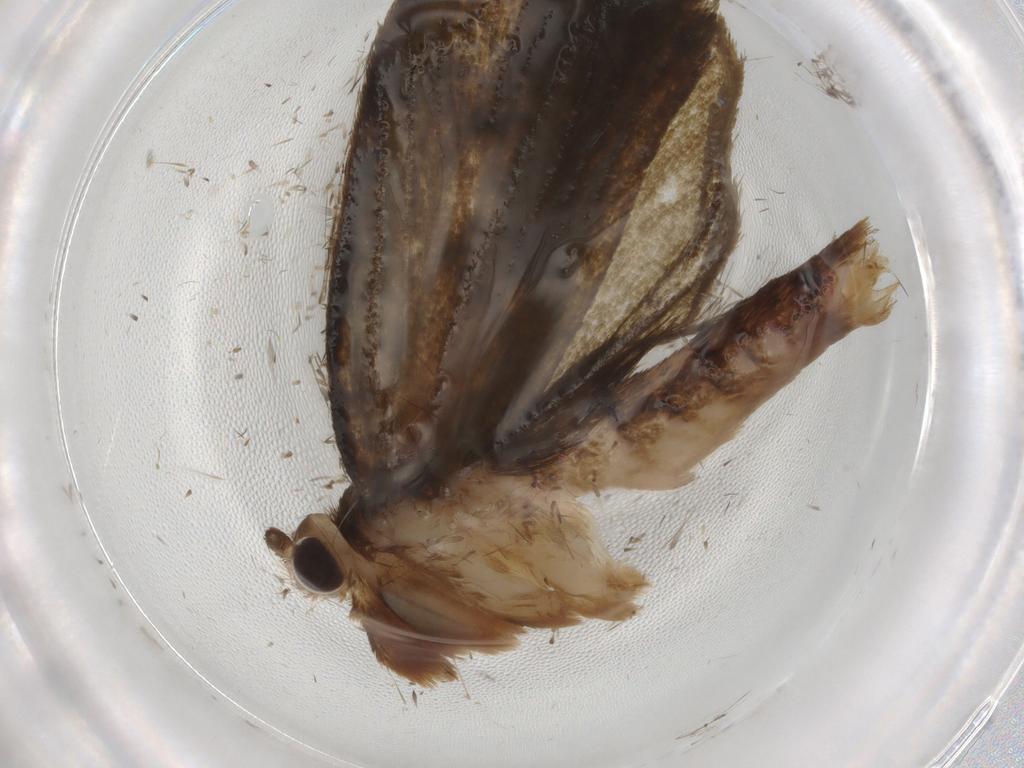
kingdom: Animalia
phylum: Arthropoda
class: Insecta
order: Lepidoptera
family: Geometridae
